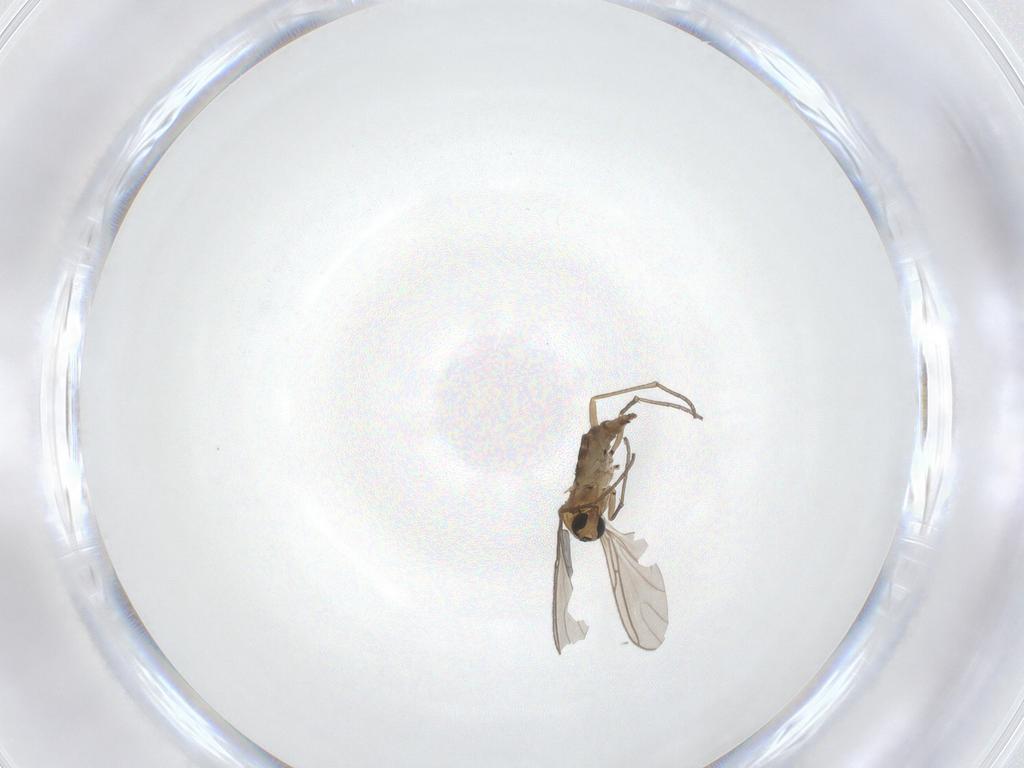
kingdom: Animalia
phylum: Arthropoda
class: Insecta
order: Diptera
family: Sciaridae
